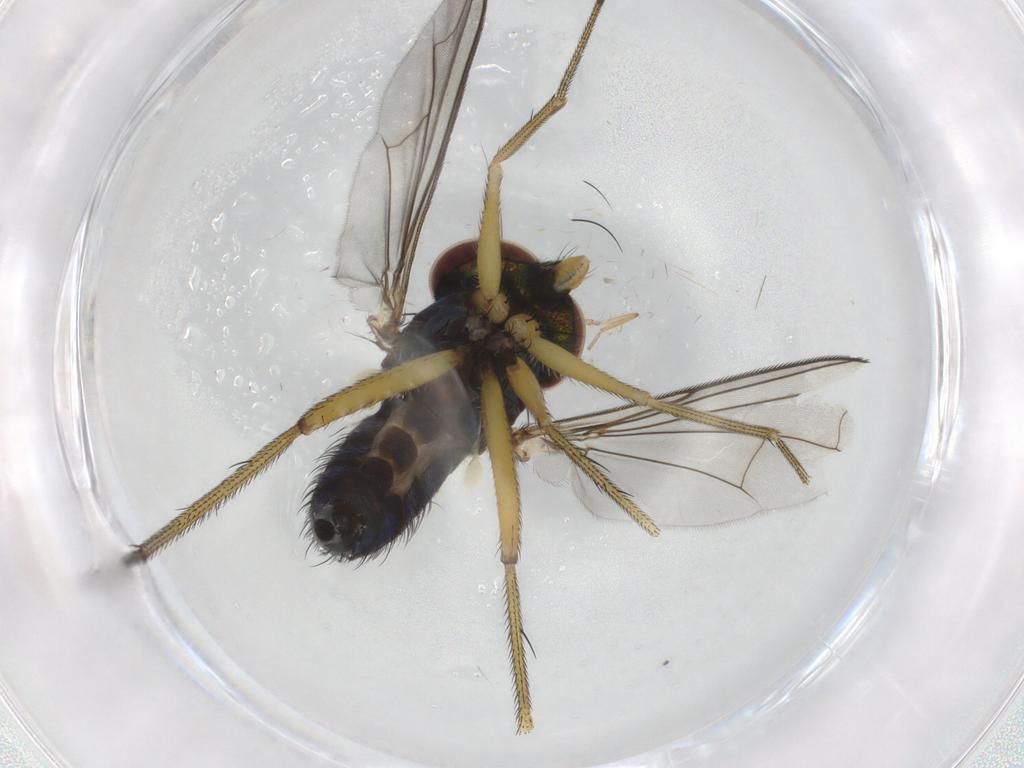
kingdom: Animalia
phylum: Arthropoda
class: Insecta
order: Diptera
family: Dolichopodidae
